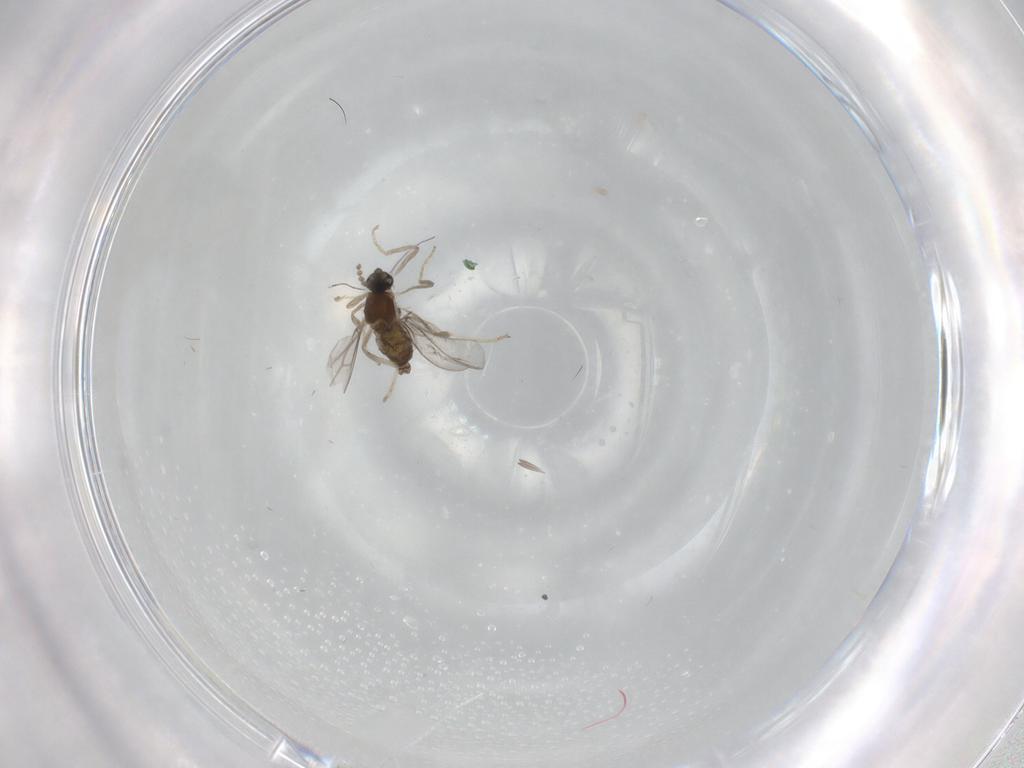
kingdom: Animalia
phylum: Arthropoda
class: Insecta
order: Diptera
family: Cecidomyiidae
